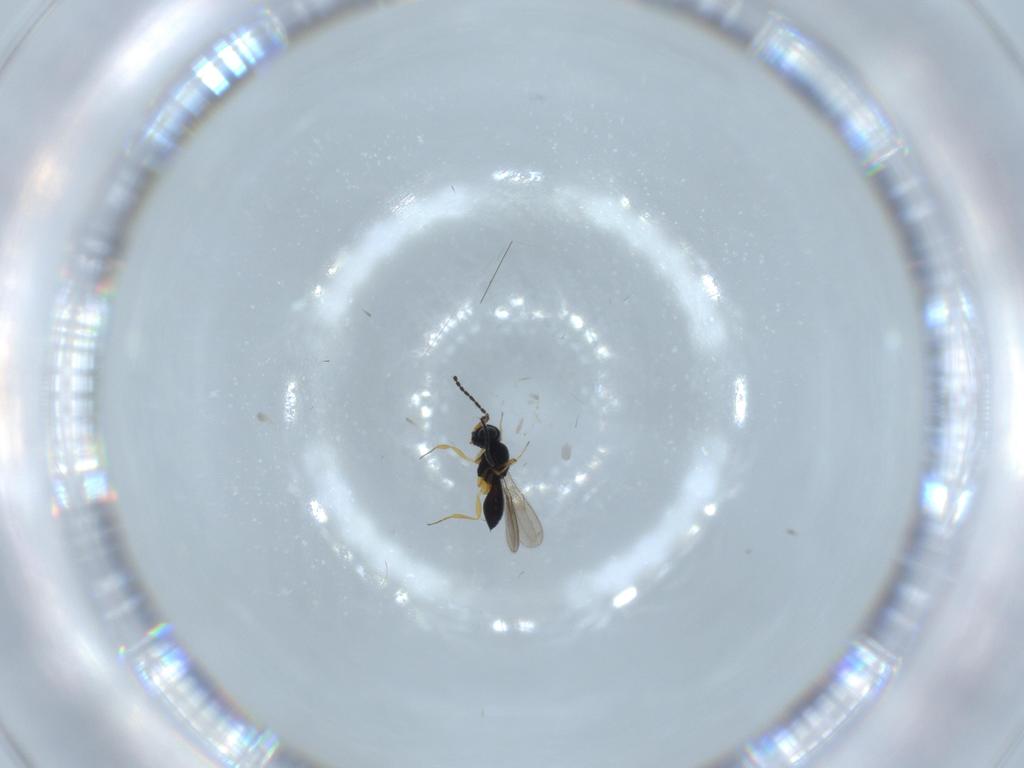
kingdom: Animalia
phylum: Arthropoda
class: Insecta
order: Hymenoptera
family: Scelionidae
